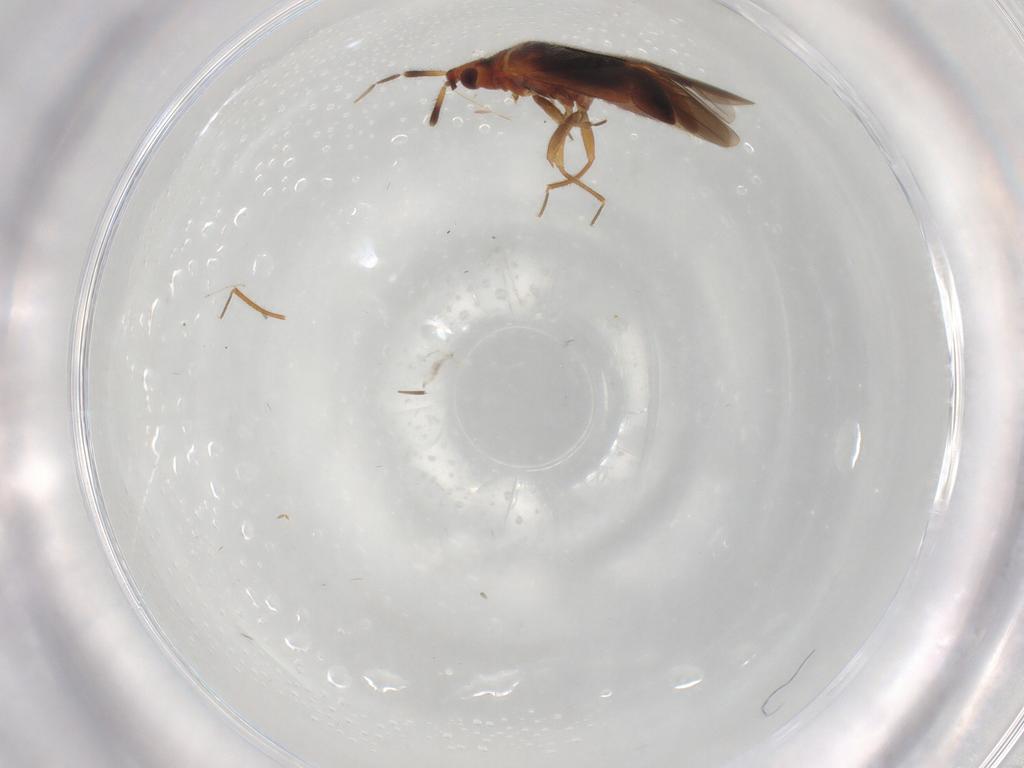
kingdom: Animalia
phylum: Arthropoda
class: Insecta
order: Hemiptera
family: Anthocoridae
